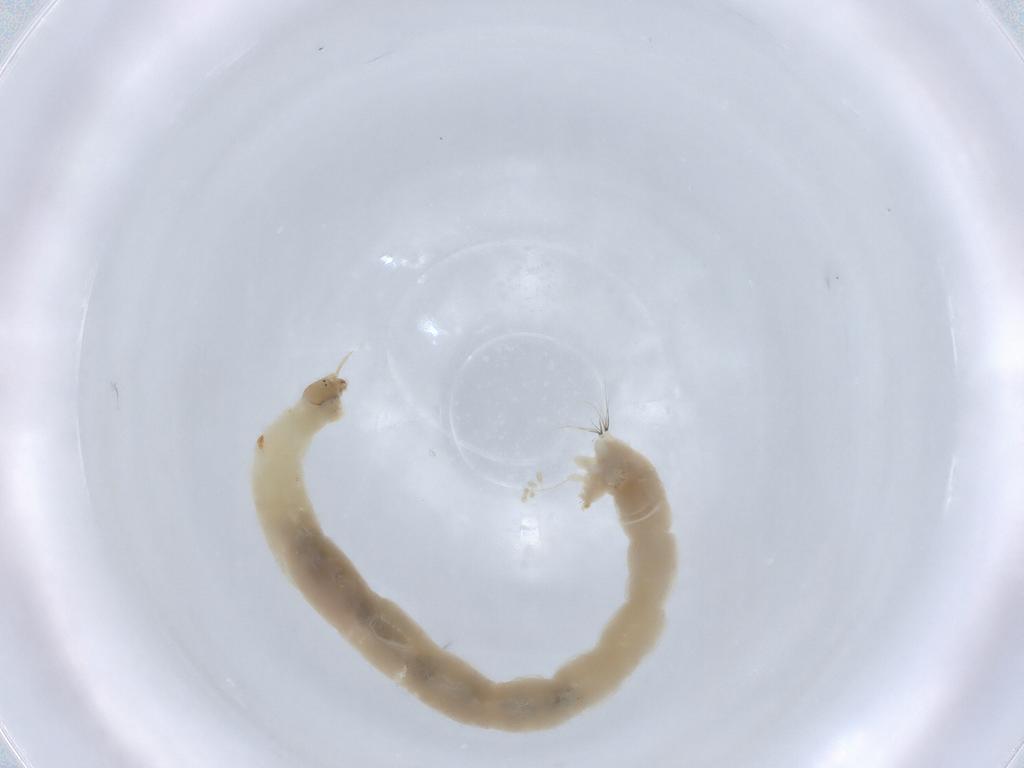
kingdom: Animalia
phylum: Arthropoda
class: Insecta
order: Diptera
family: Chironomidae
